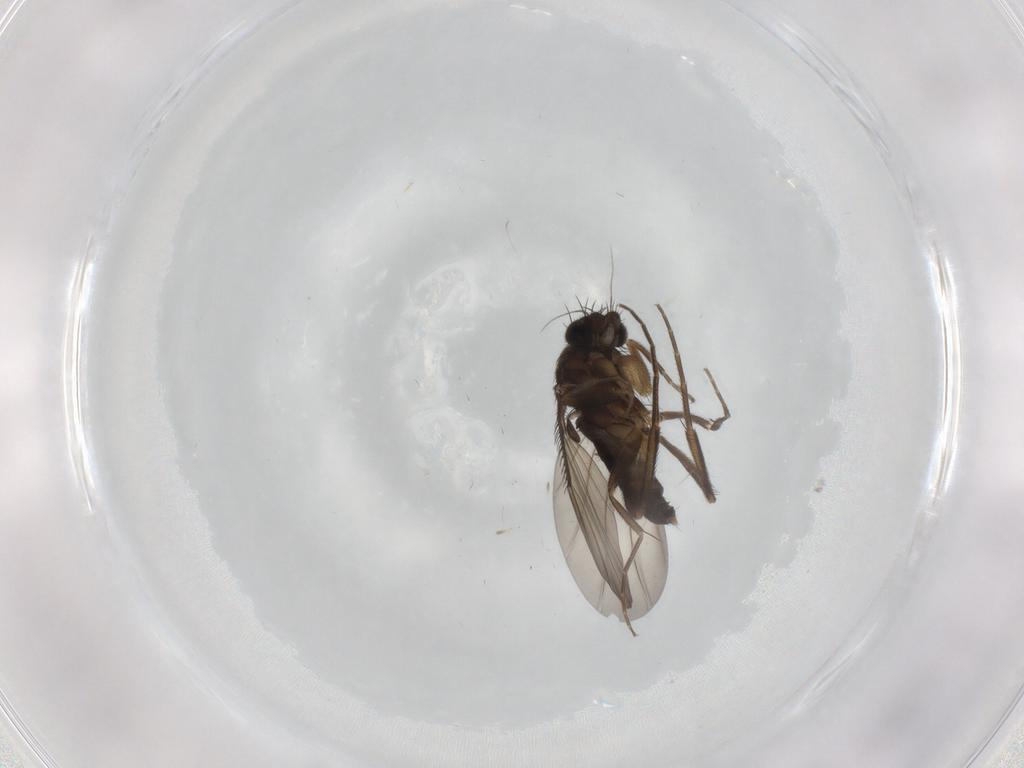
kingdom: Animalia
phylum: Arthropoda
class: Insecta
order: Diptera
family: Phoridae
